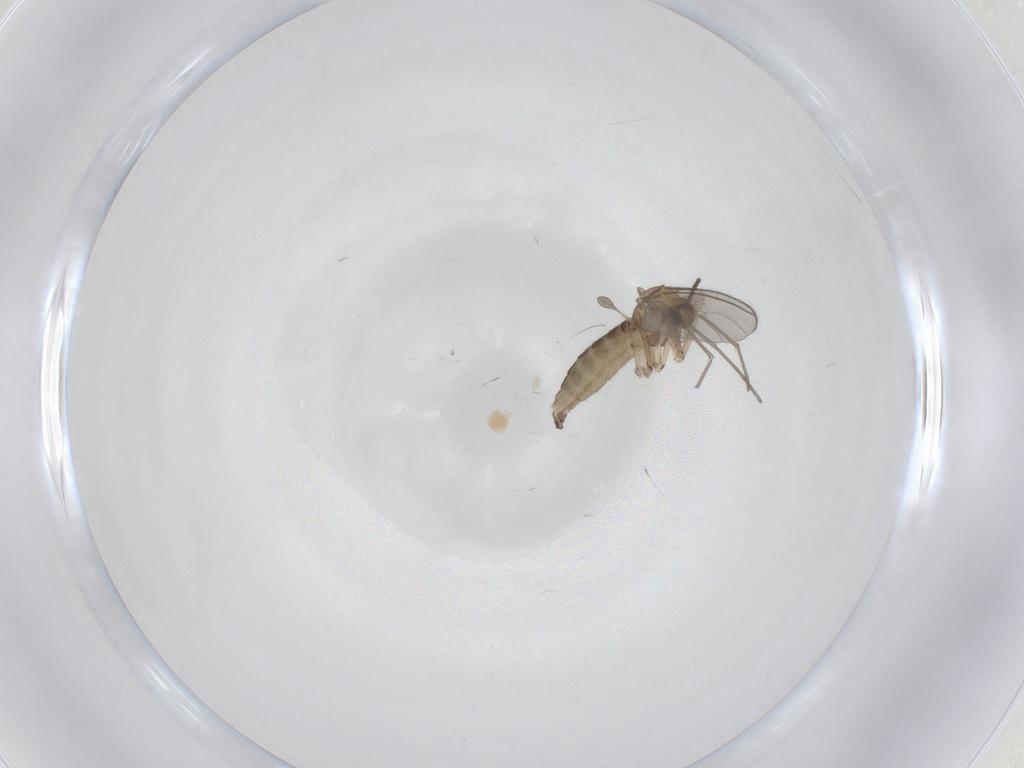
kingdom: Animalia
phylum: Arthropoda
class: Insecta
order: Diptera
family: Sciaridae
